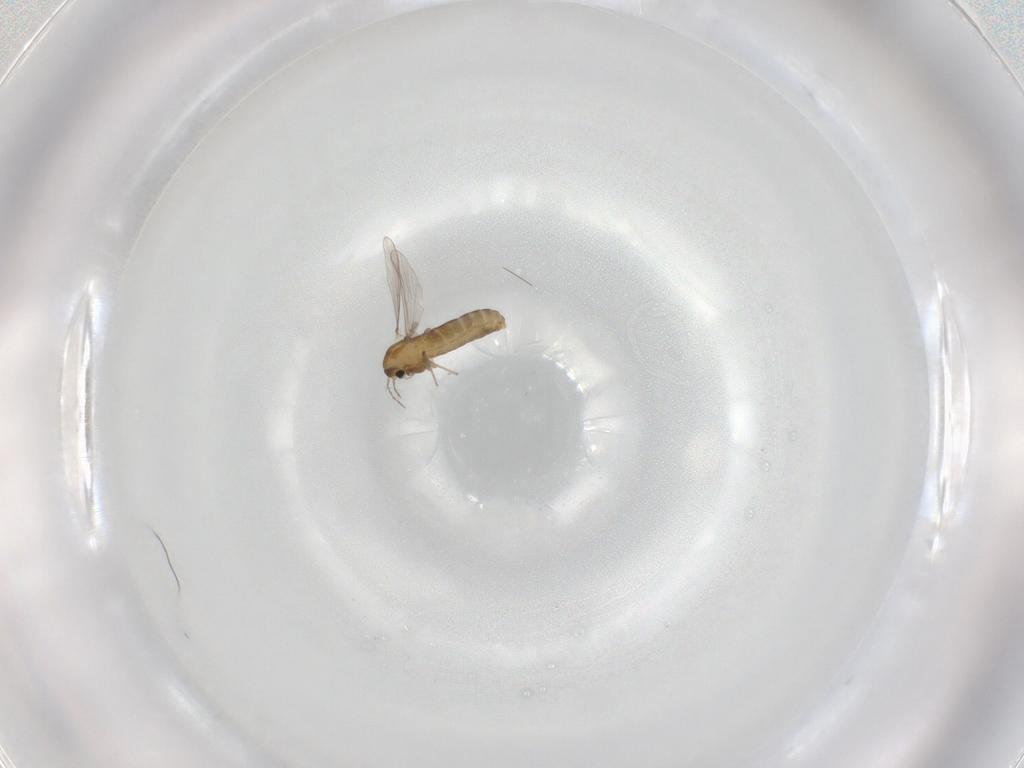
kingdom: Animalia
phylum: Arthropoda
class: Insecta
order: Diptera
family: Chironomidae
